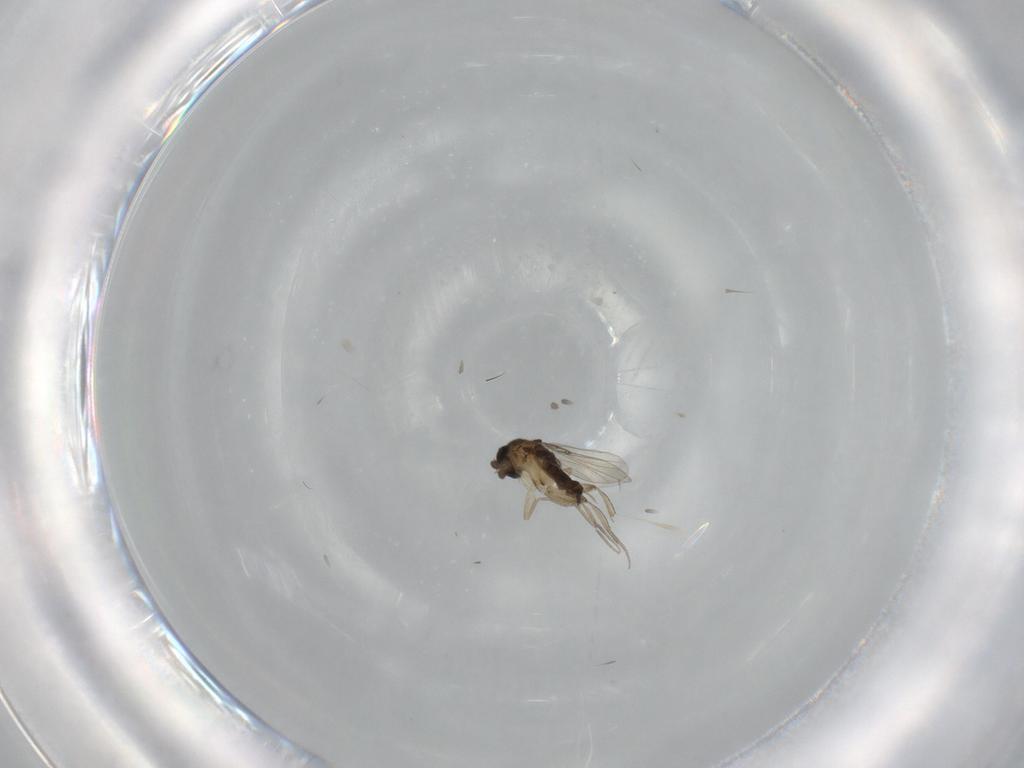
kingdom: Animalia
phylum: Arthropoda
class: Insecta
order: Diptera
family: Phoridae
